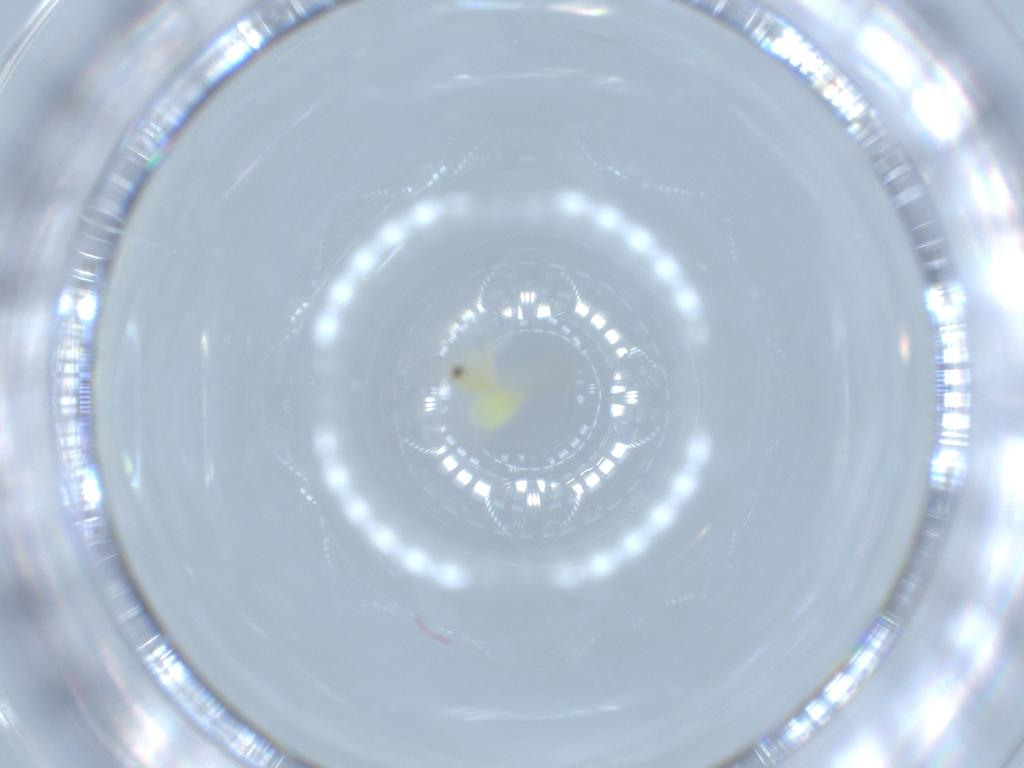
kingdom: Animalia
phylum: Arthropoda
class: Insecta
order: Hemiptera
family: Aleyrodidae
